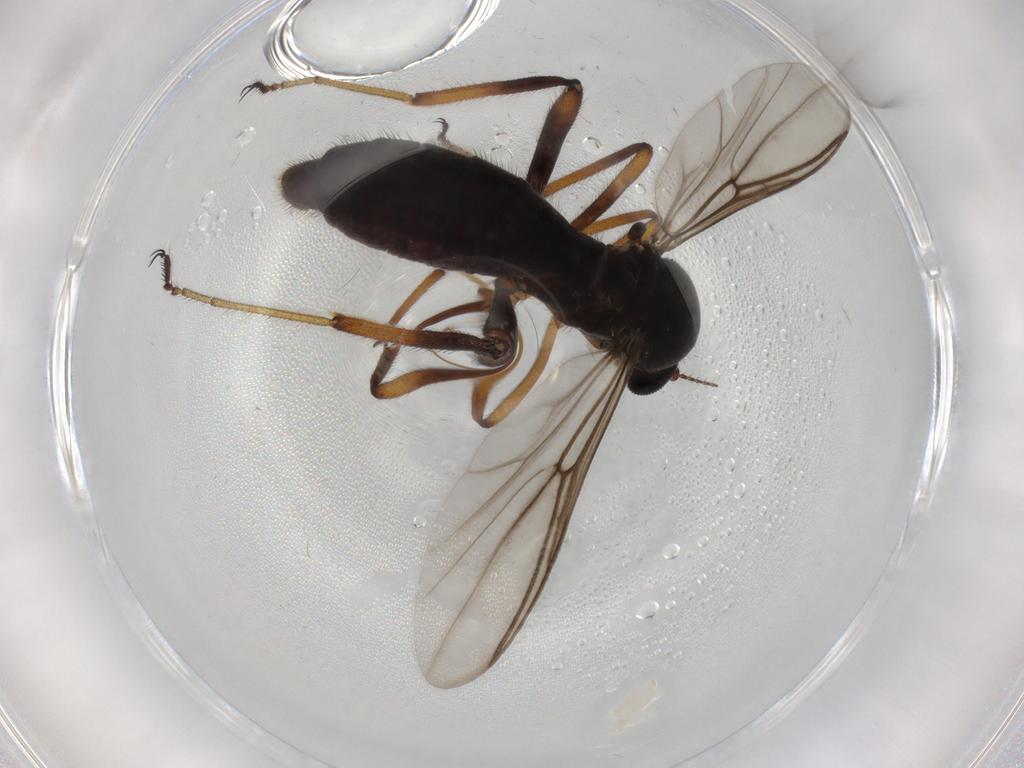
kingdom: Animalia
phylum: Arthropoda
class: Insecta
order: Diptera
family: Ceratopogonidae
